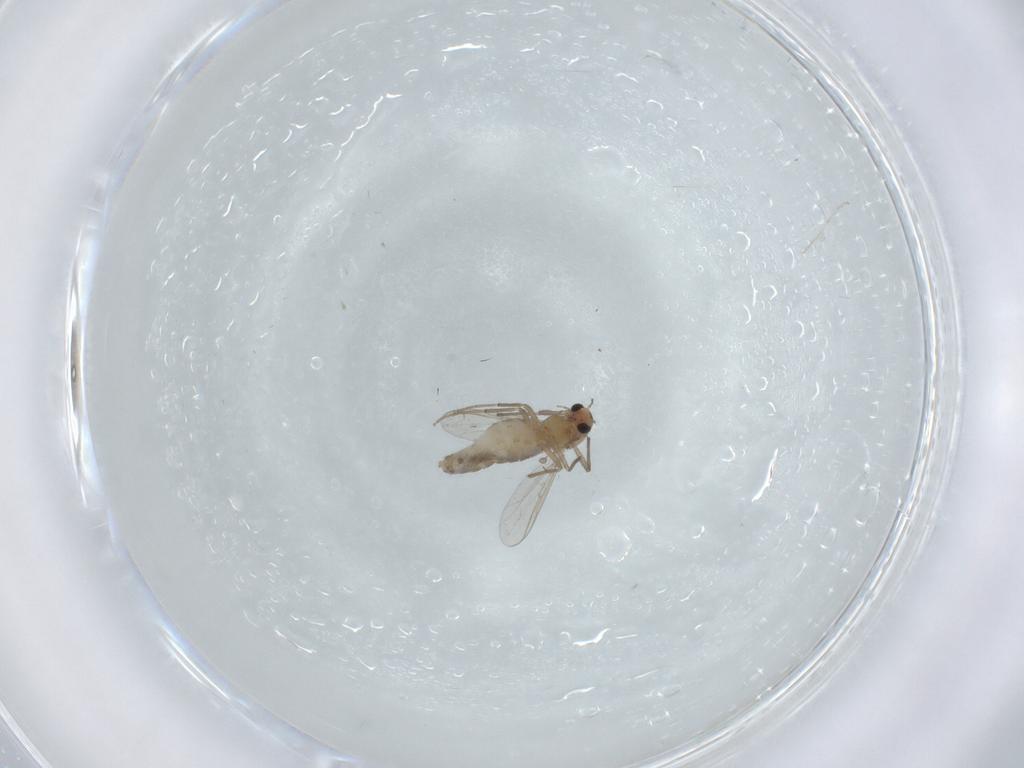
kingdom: Animalia
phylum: Arthropoda
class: Insecta
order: Diptera
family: Chironomidae
